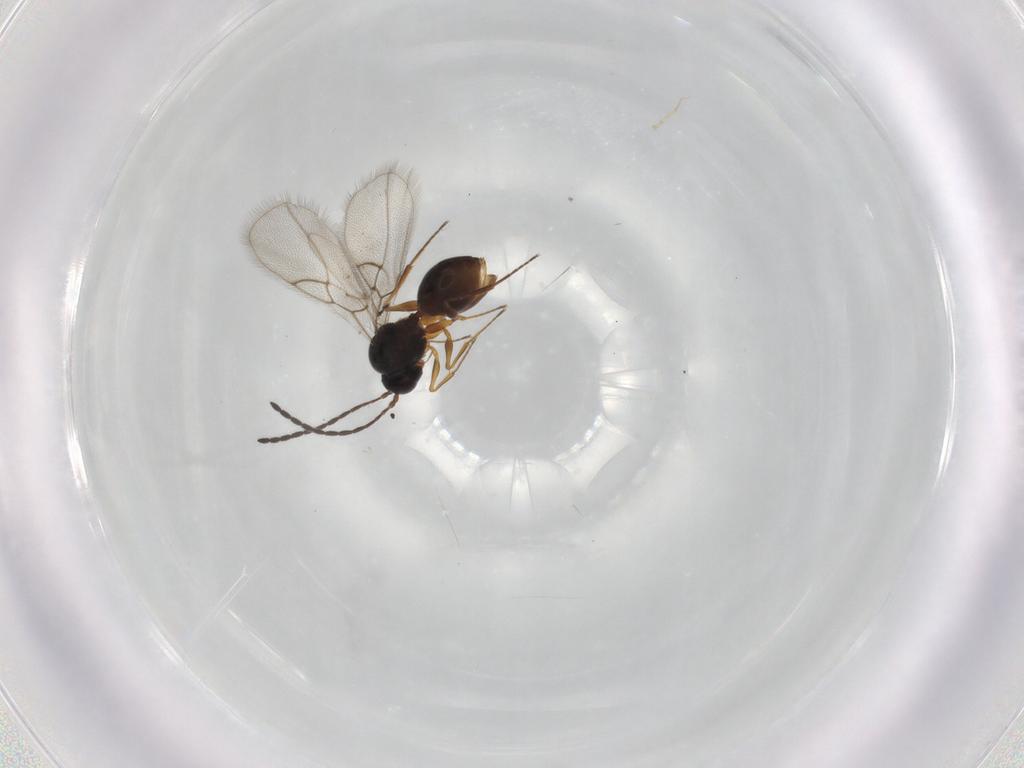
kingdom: Animalia
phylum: Arthropoda
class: Insecta
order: Hymenoptera
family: Figitidae
